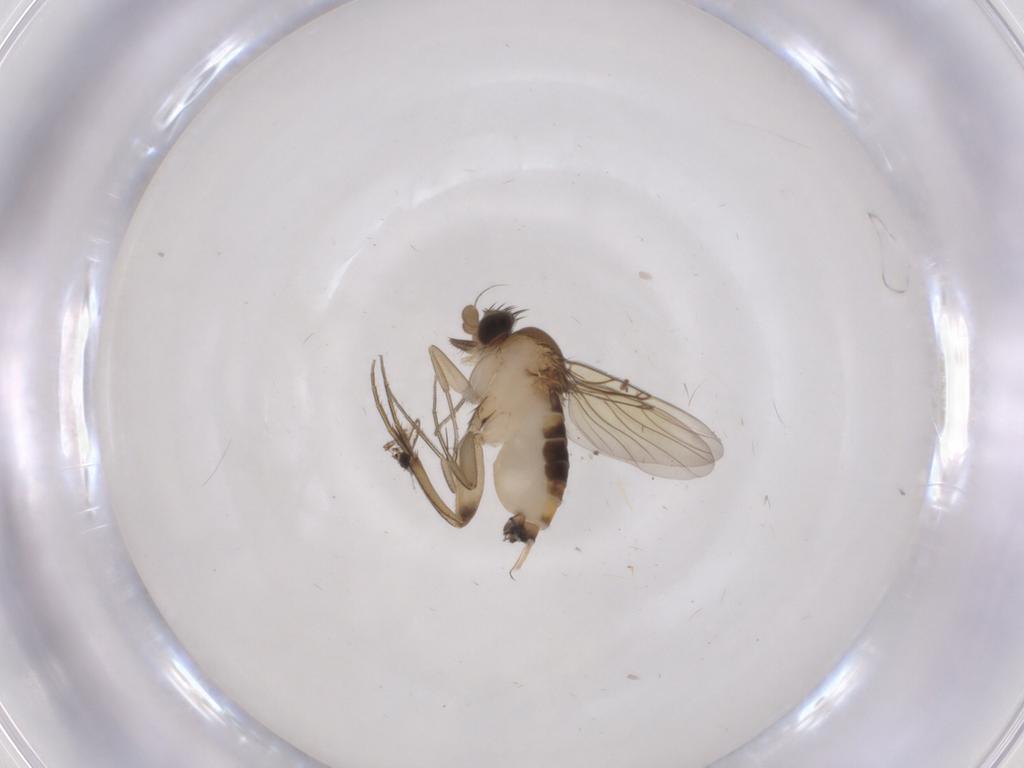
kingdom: Animalia
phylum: Arthropoda
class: Insecta
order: Diptera
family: Phoridae
